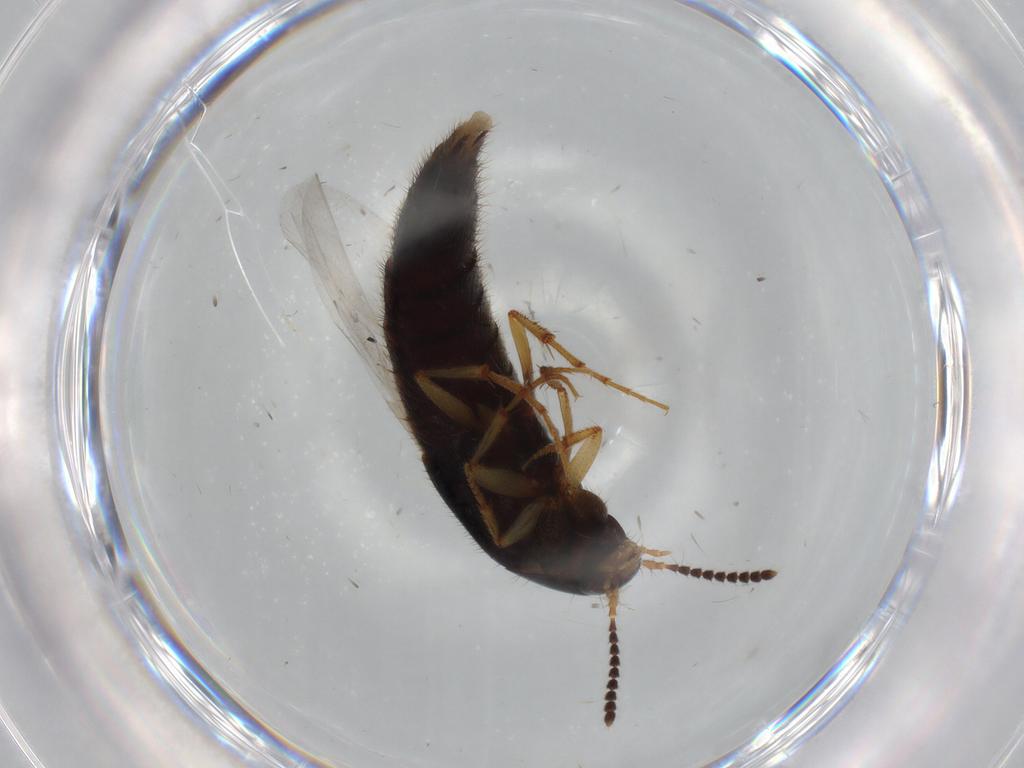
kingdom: Animalia
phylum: Arthropoda
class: Insecta
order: Coleoptera
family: Staphylinidae
